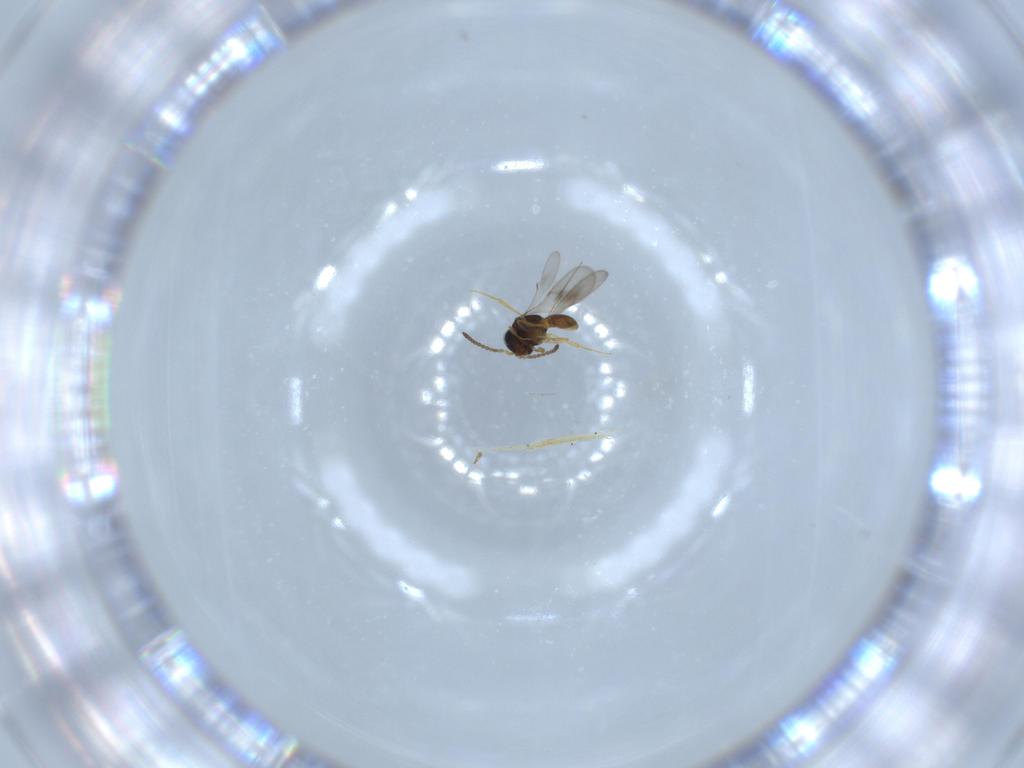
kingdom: Animalia
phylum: Arthropoda
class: Insecta
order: Hymenoptera
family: Scelionidae
